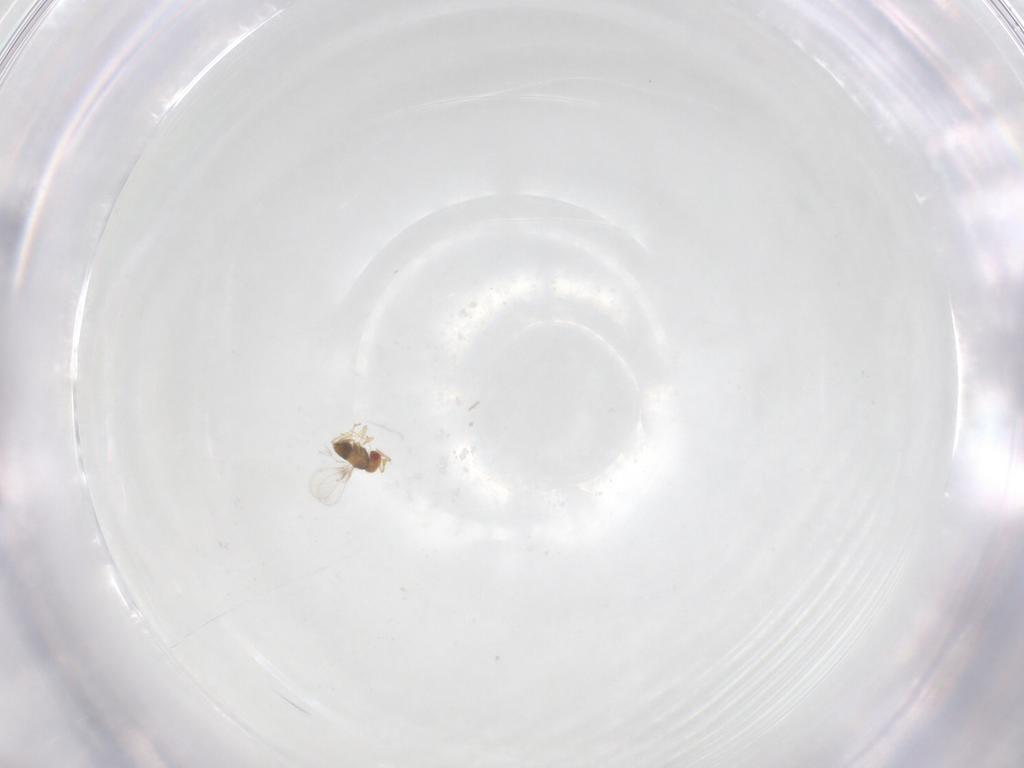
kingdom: Animalia
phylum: Arthropoda
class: Insecta
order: Hymenoptera
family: Trichogrammatidae
